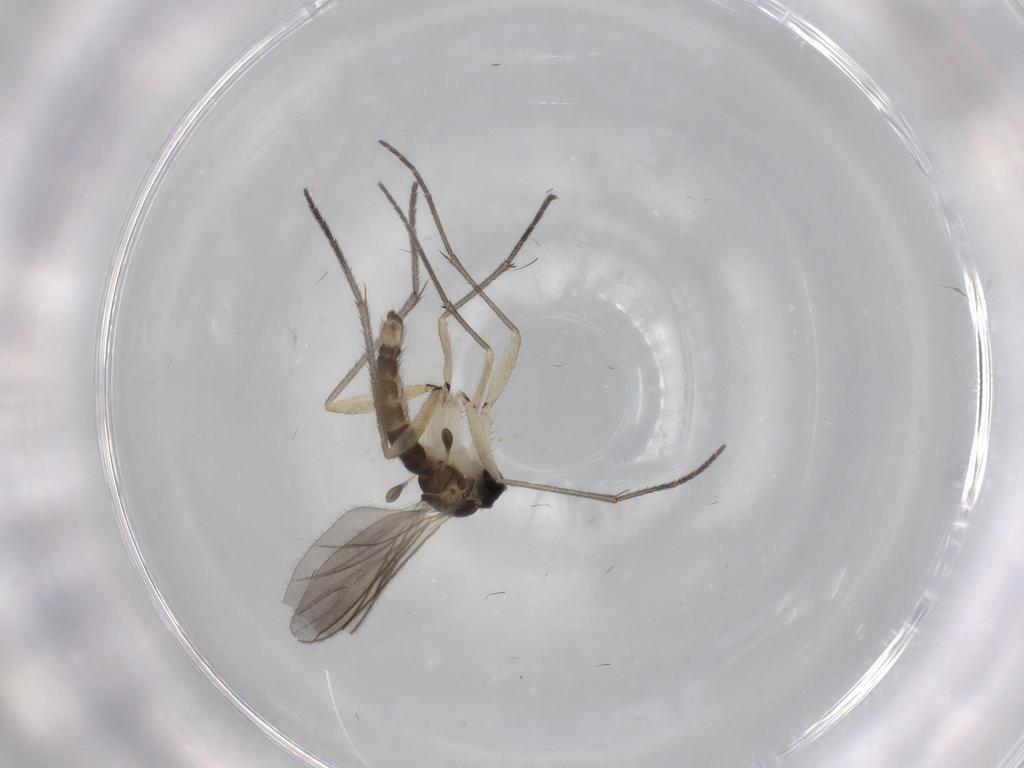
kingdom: Animalia
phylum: Arthropoda
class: Insecta
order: Diptera
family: Sciaridae
